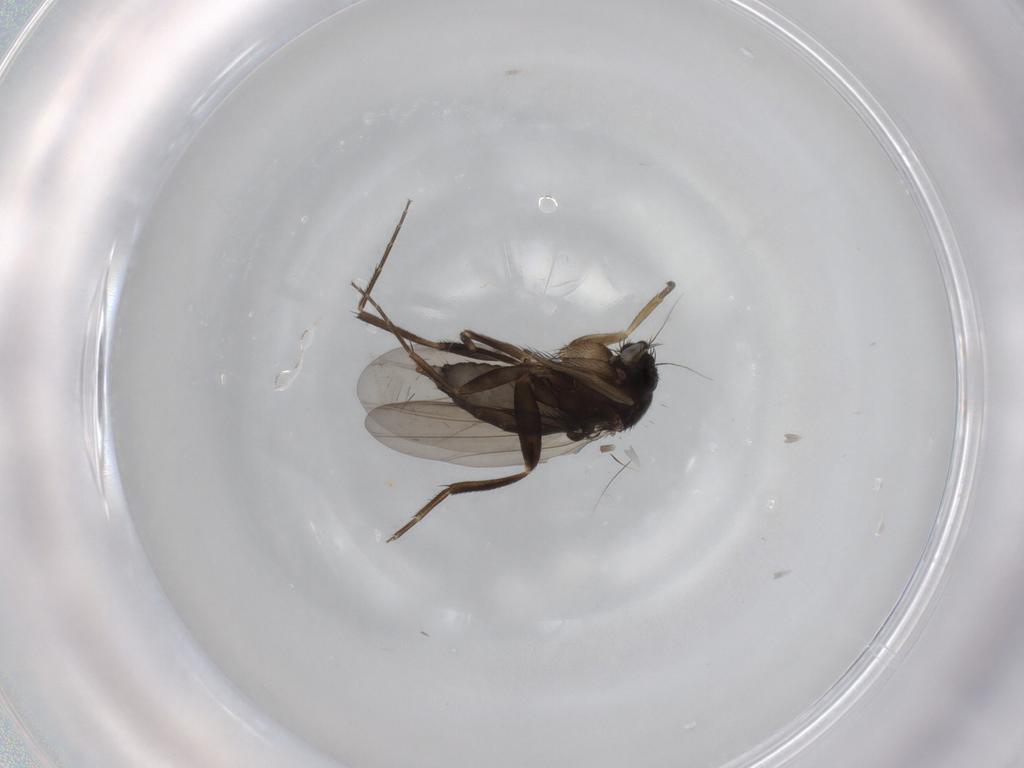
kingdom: Animalia
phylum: Arthropoda
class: Insecta
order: Diptera
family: Phoridae
